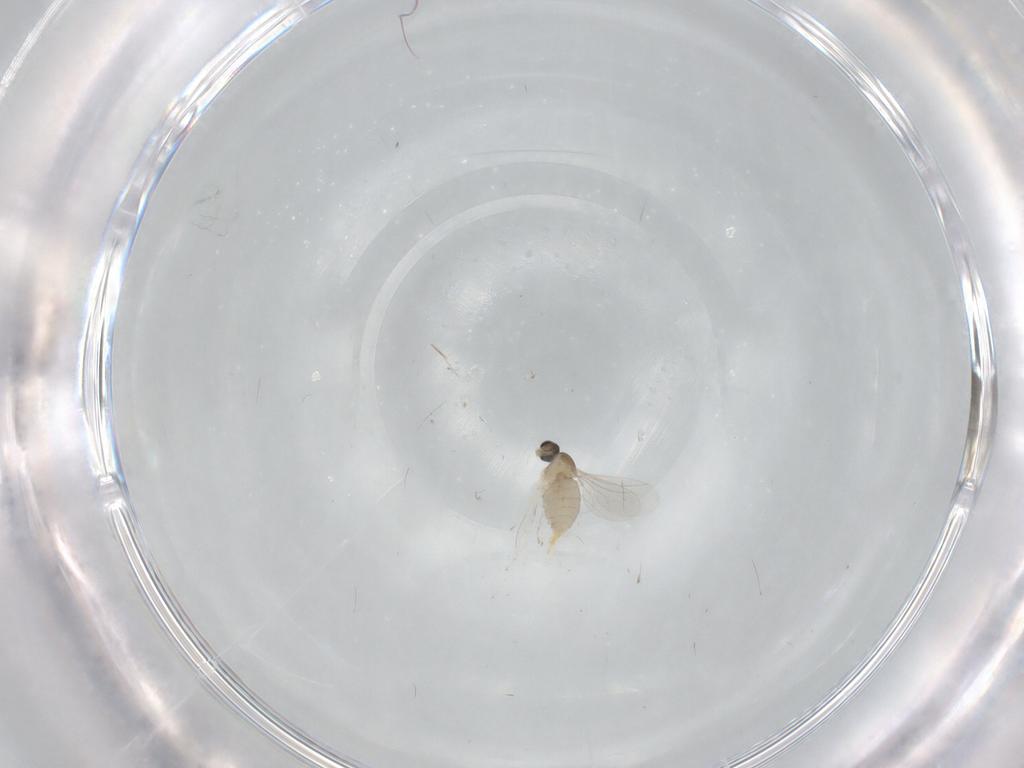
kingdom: Animalia
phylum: Arthropoda
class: Insecta
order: Diptera
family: Cecidomyiidae
